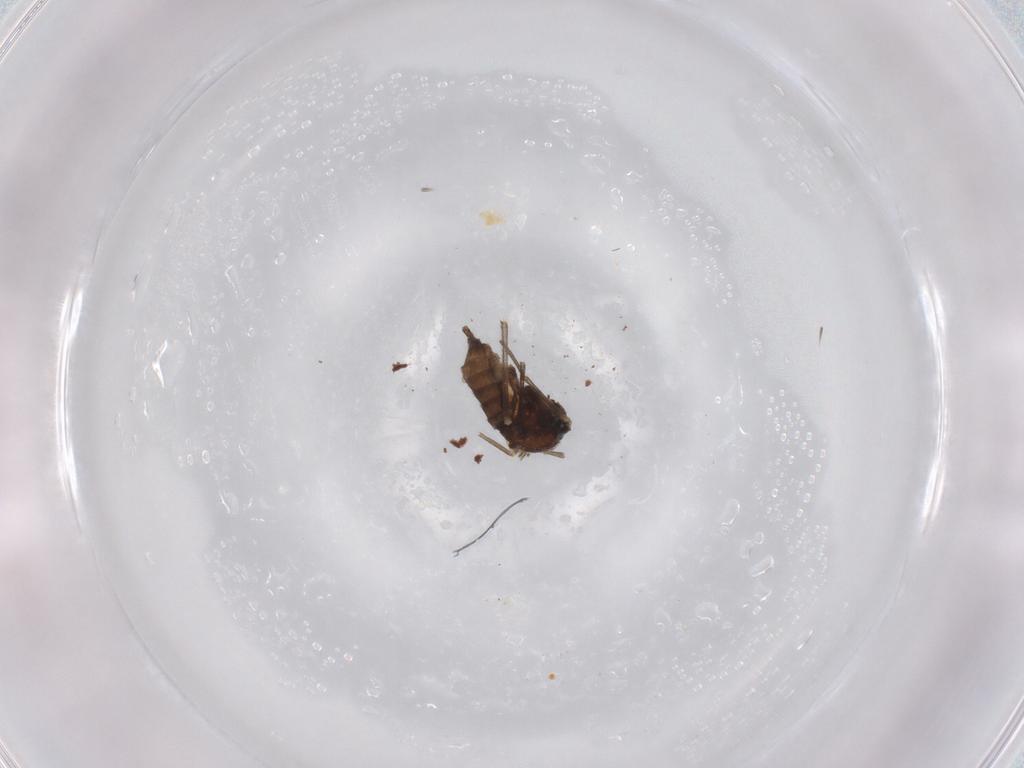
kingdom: Animalia
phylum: Arthropoda
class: Insecta
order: Diptera
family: Sciaridae
